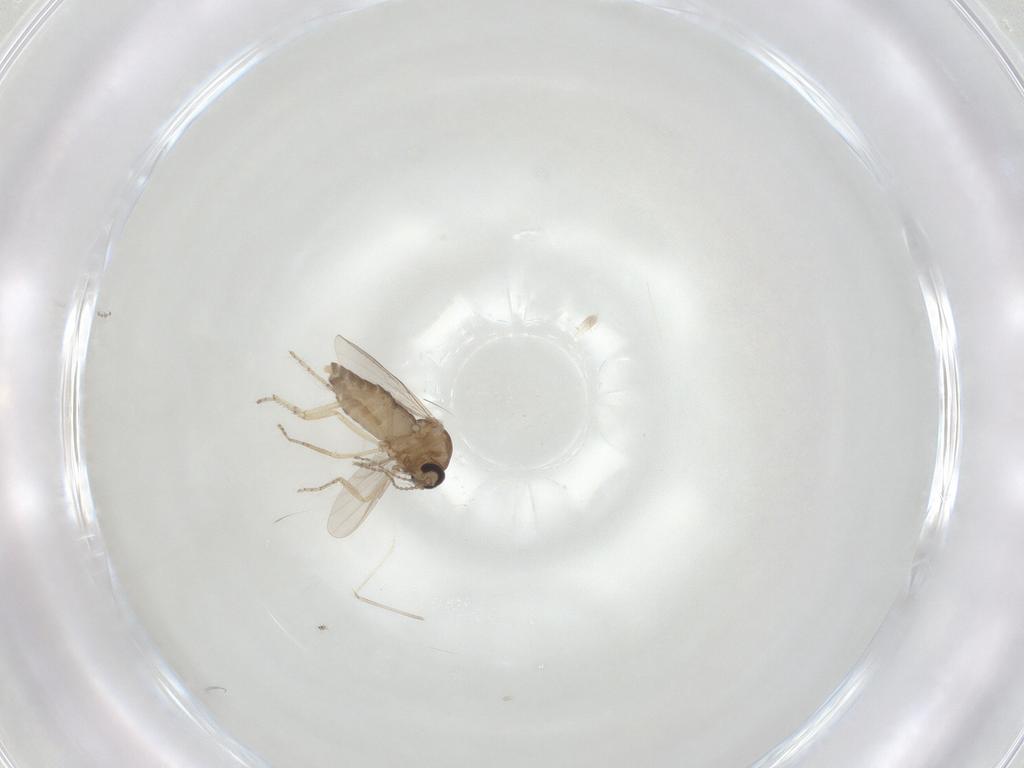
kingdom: Animalia
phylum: Arthropoda
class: Insecta
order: Diptera
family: Ceratopogonidae
